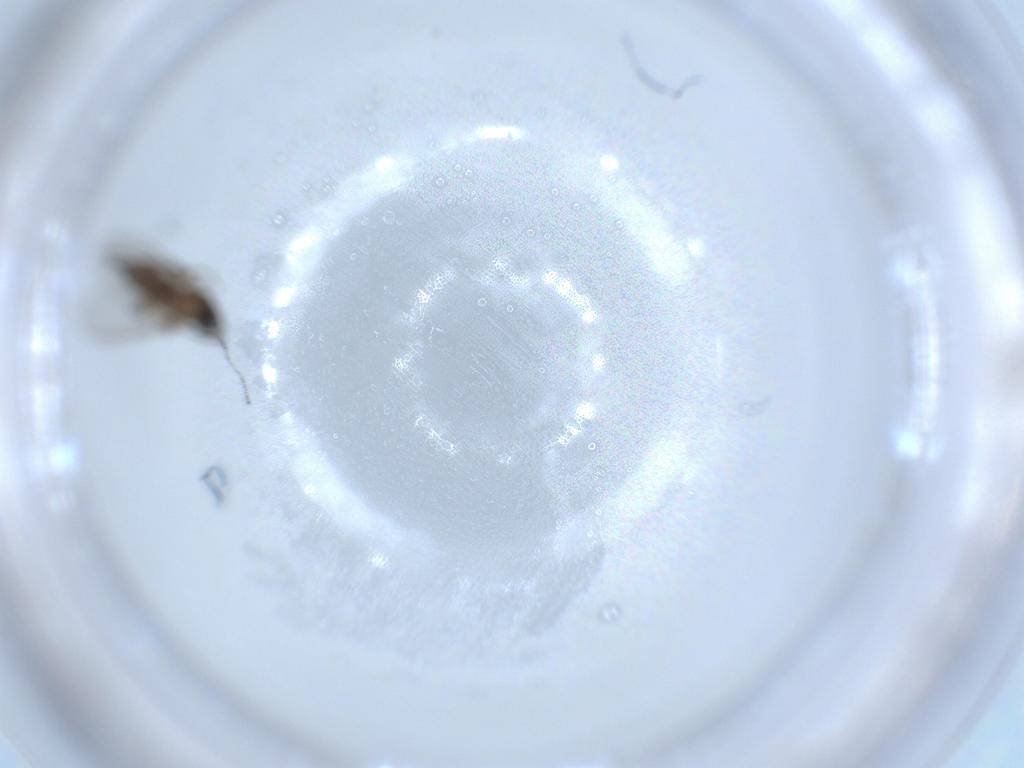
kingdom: Animalia
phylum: Arthropoda
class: Insecta
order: Diptera
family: Sciaridae
